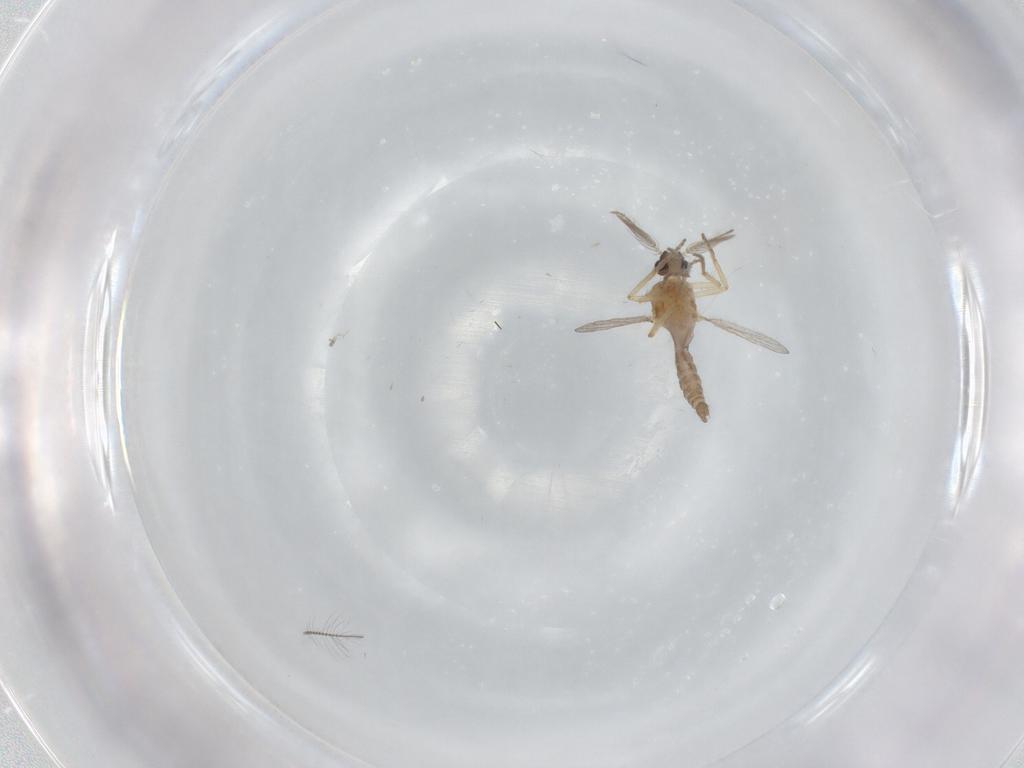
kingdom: Animalia
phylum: Arthropoda
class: Insecta
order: Diptera
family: Ceratopogonidae
